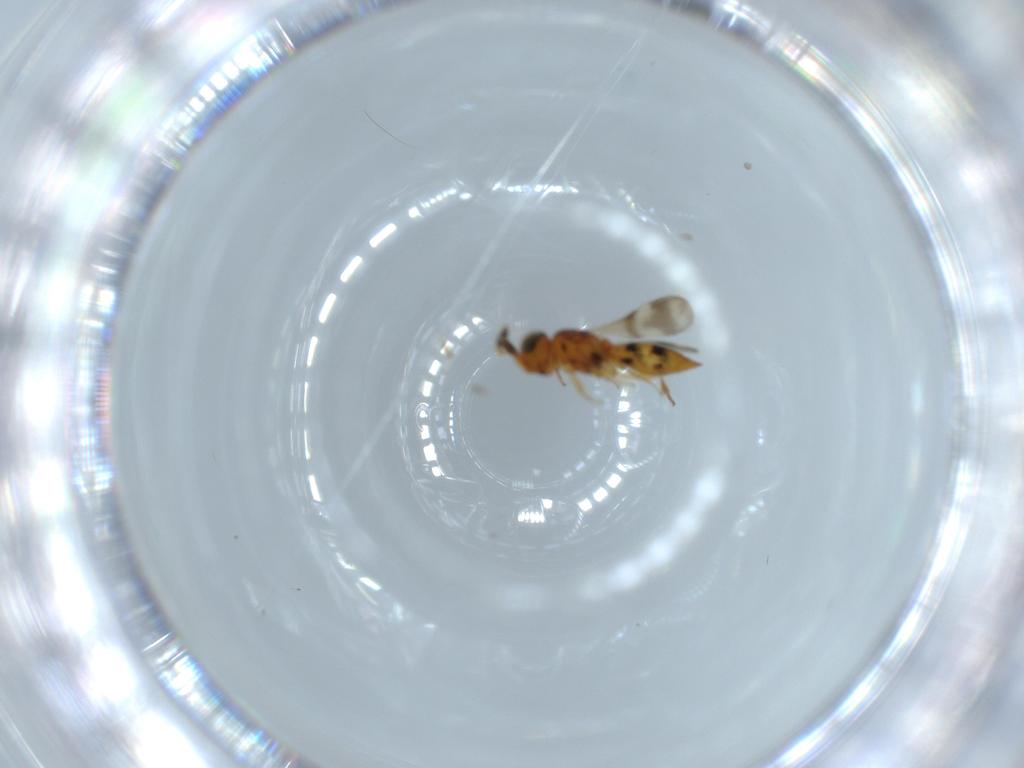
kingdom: Animalia
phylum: Arthropoda
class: Insecta
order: Hymenoptera
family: Scelionidae
